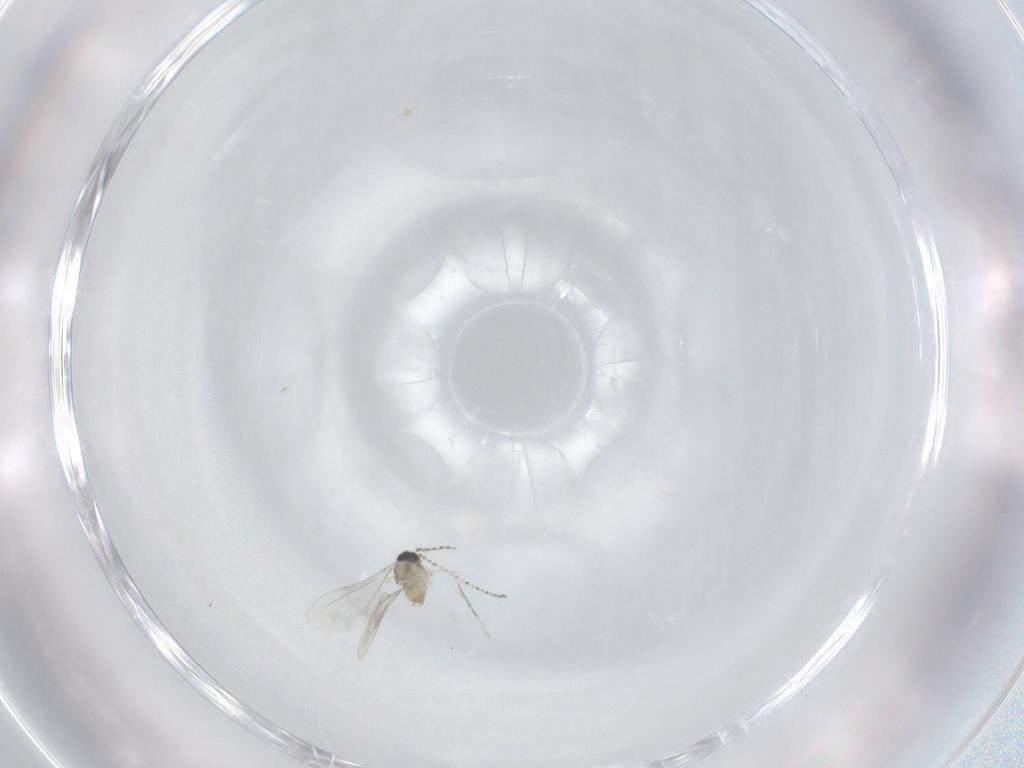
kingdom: Animalia
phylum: Arthropoda
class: Insecta
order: Diptera
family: Cecidomyiidae
